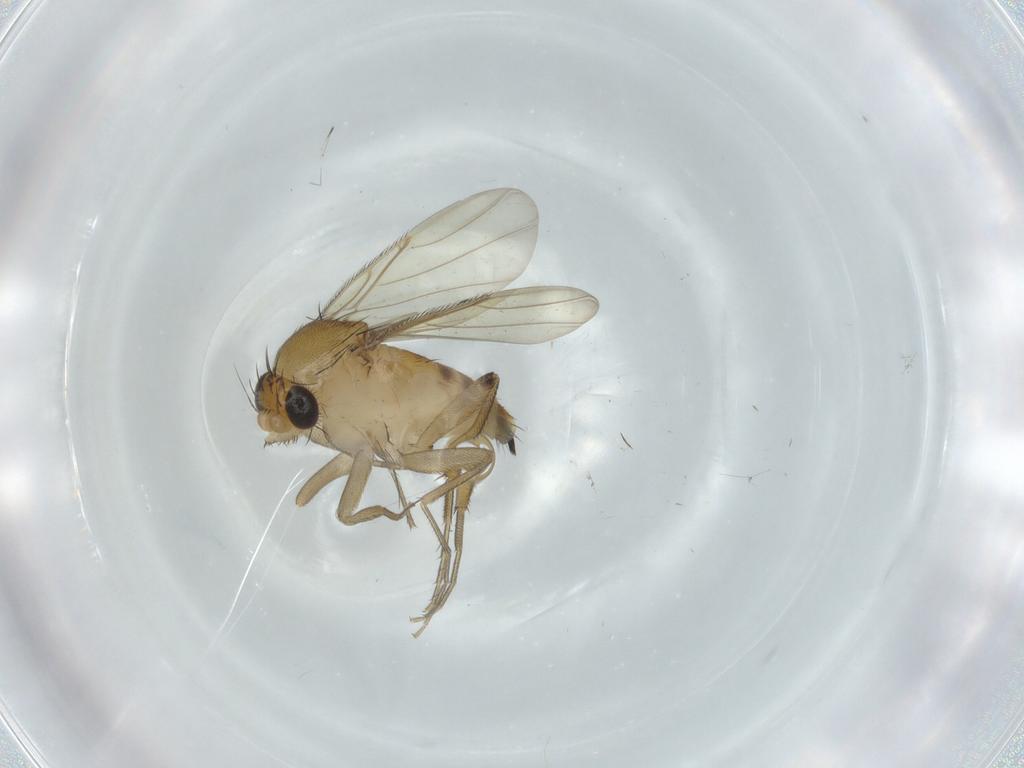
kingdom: Animalia
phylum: Arthropoda
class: Insecta
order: Diptera
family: Phoridae
